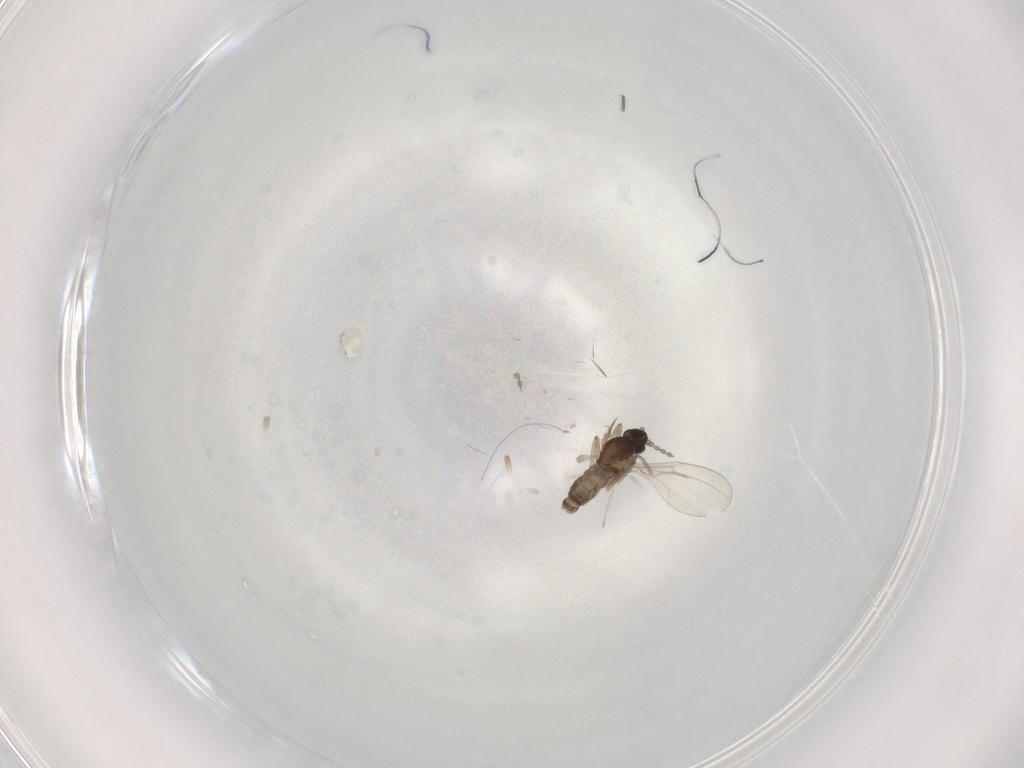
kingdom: Animalia
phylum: Arthropoda
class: Insecta
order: Diptera
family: Cecidomyiidae
